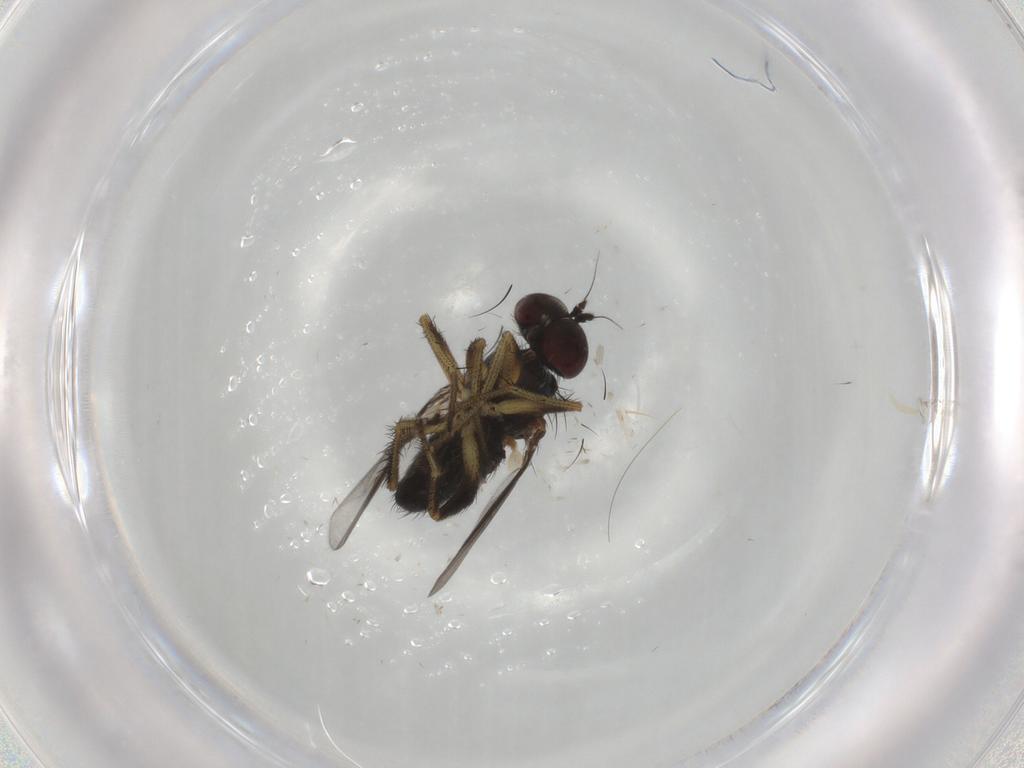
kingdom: Animalia
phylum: Arthropoda
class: Insecta
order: Diptera
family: Dolichopodidae
